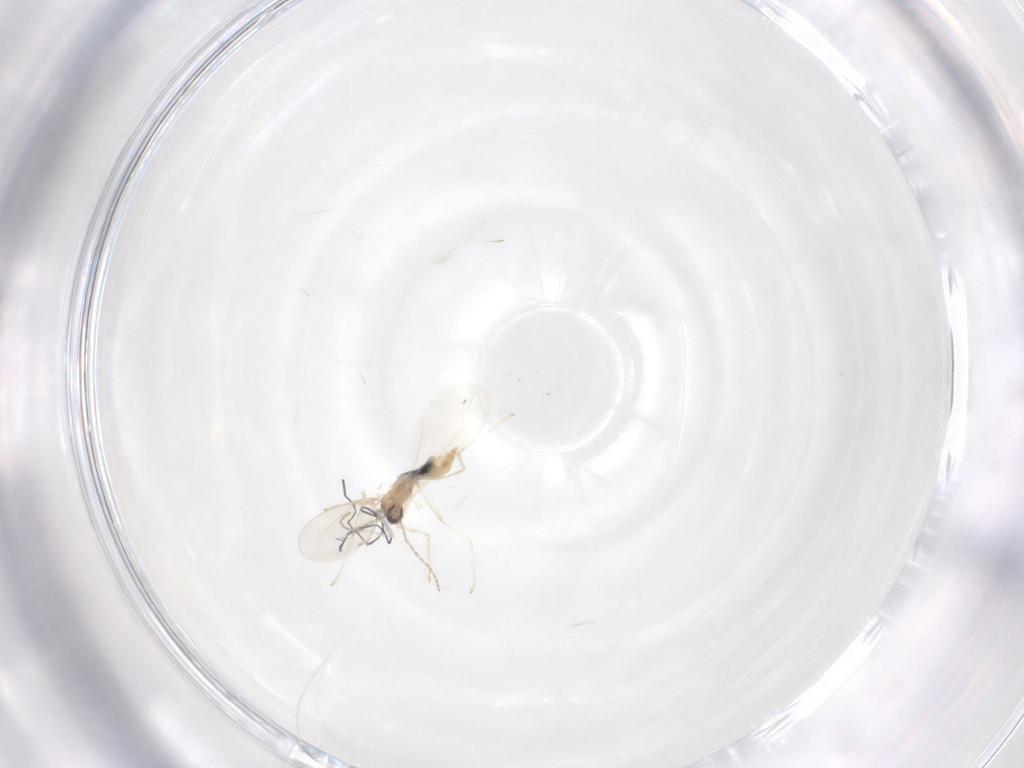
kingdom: Animalia
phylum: Arthropoda
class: Insecta
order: Diptera
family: Cecidomyiidae
